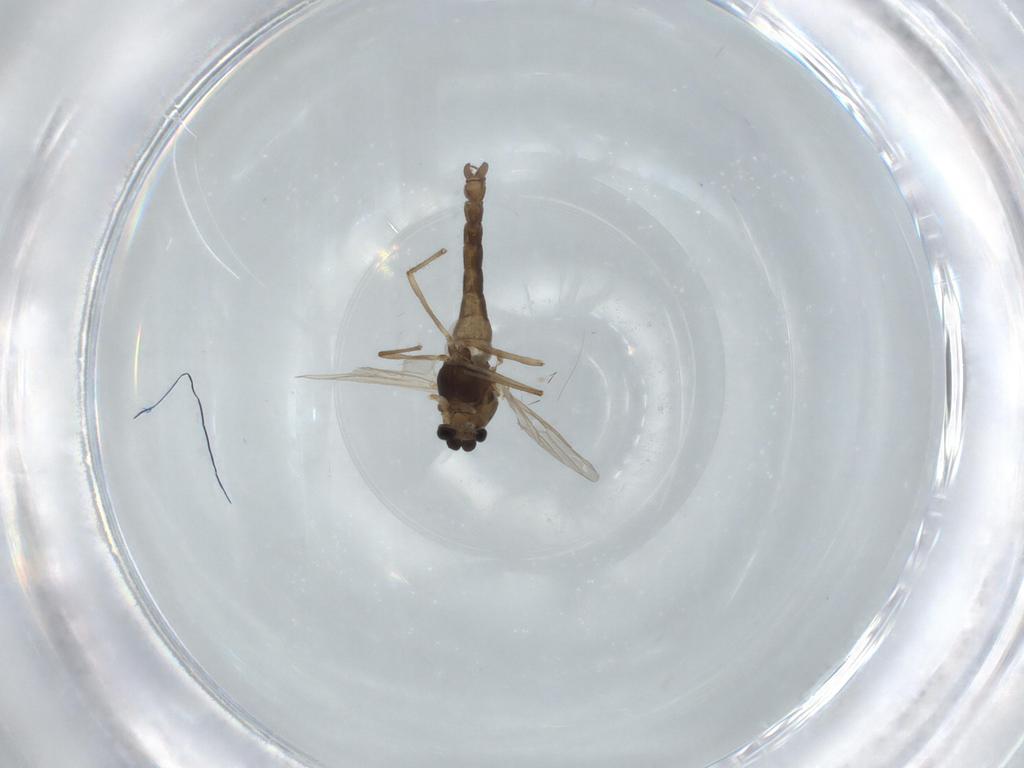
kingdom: Animalia
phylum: Arthropoda
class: Insecta
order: Diptera
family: Chironomidae
